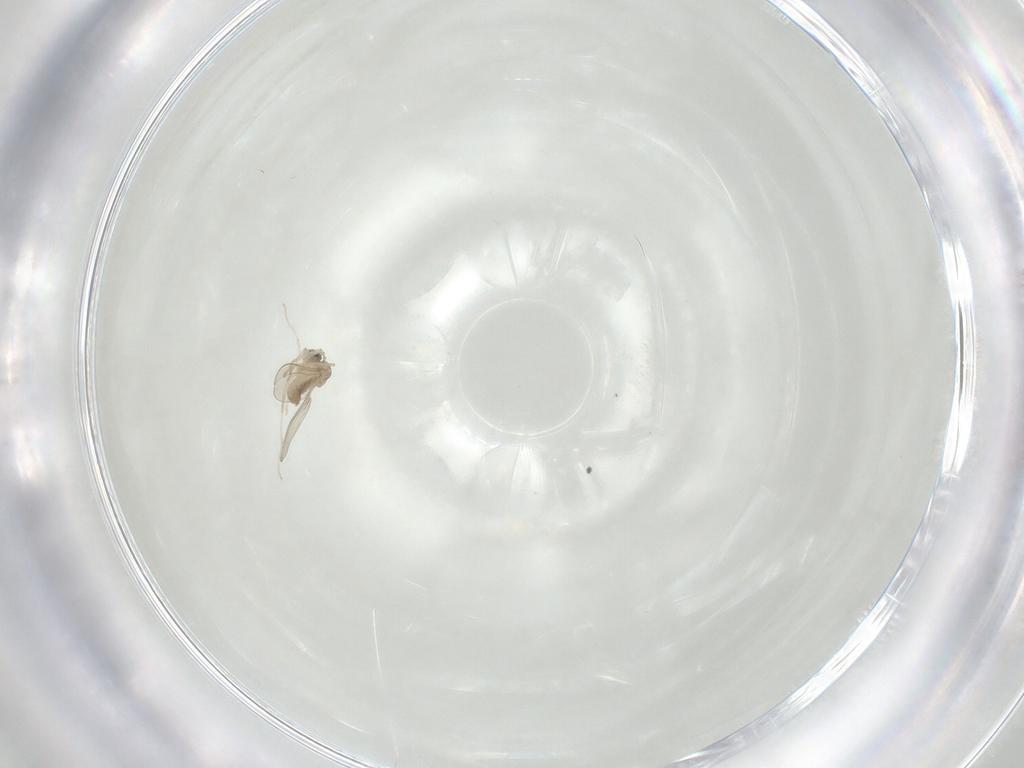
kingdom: Animalia
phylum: Arthropoda
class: Insecta
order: Diptera
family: Cecidomyiidae
